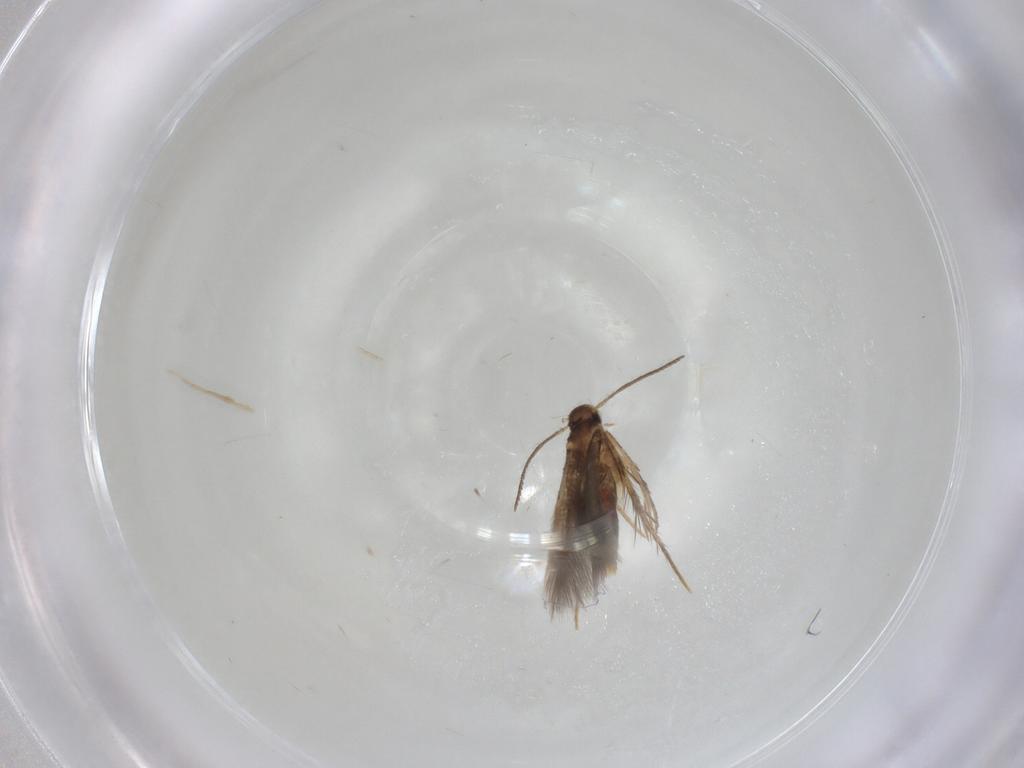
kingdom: Animalia
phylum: Arthropoda
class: Insecta
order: Lepidoptera
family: Pyralidae
